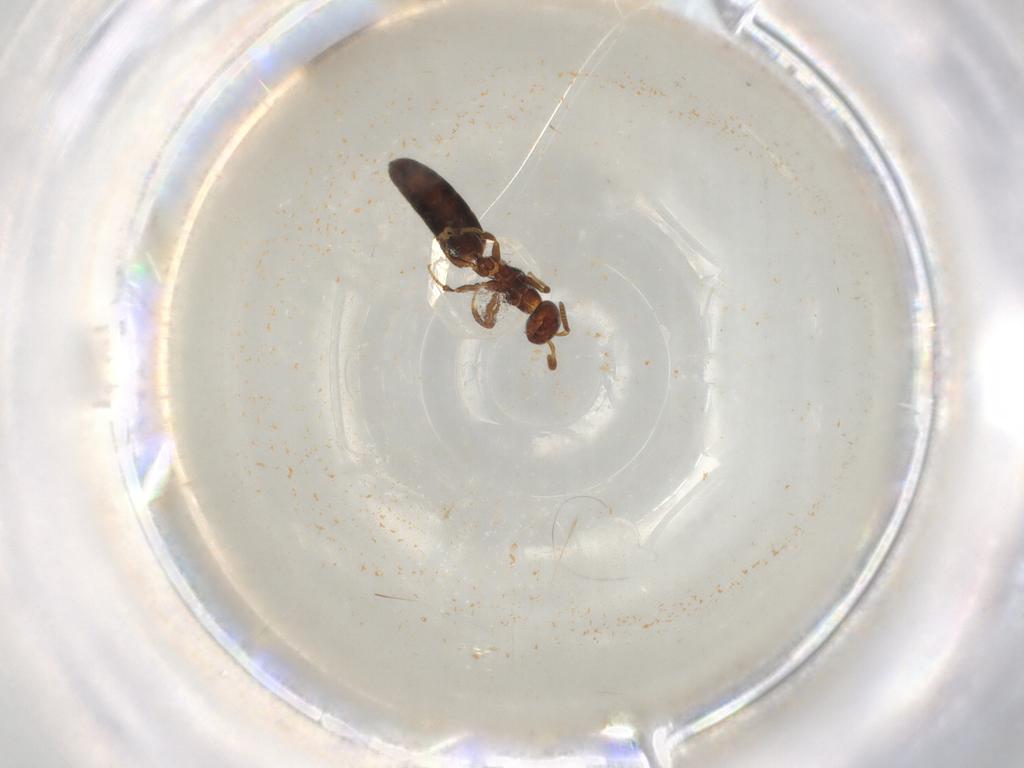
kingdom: Animalia
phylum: Arthropoda
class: Insecta
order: Hymenoptera
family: Bethylidae
